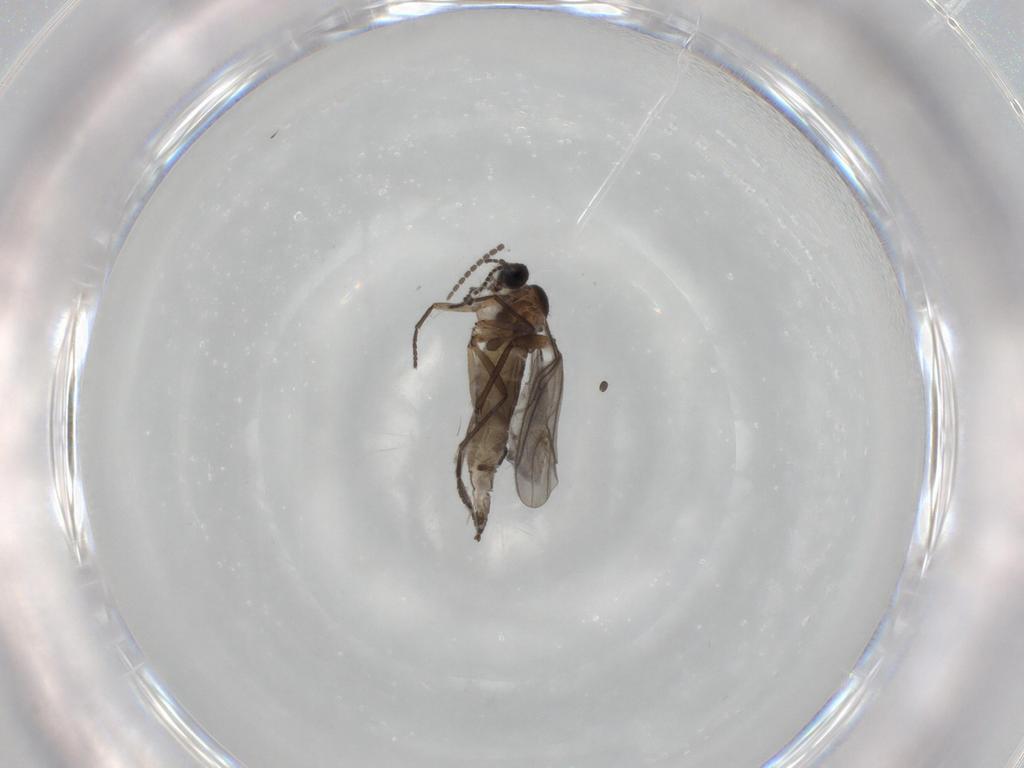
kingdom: Animalia
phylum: Arthropoda
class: Insecta
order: Diptera
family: Sciaridae
